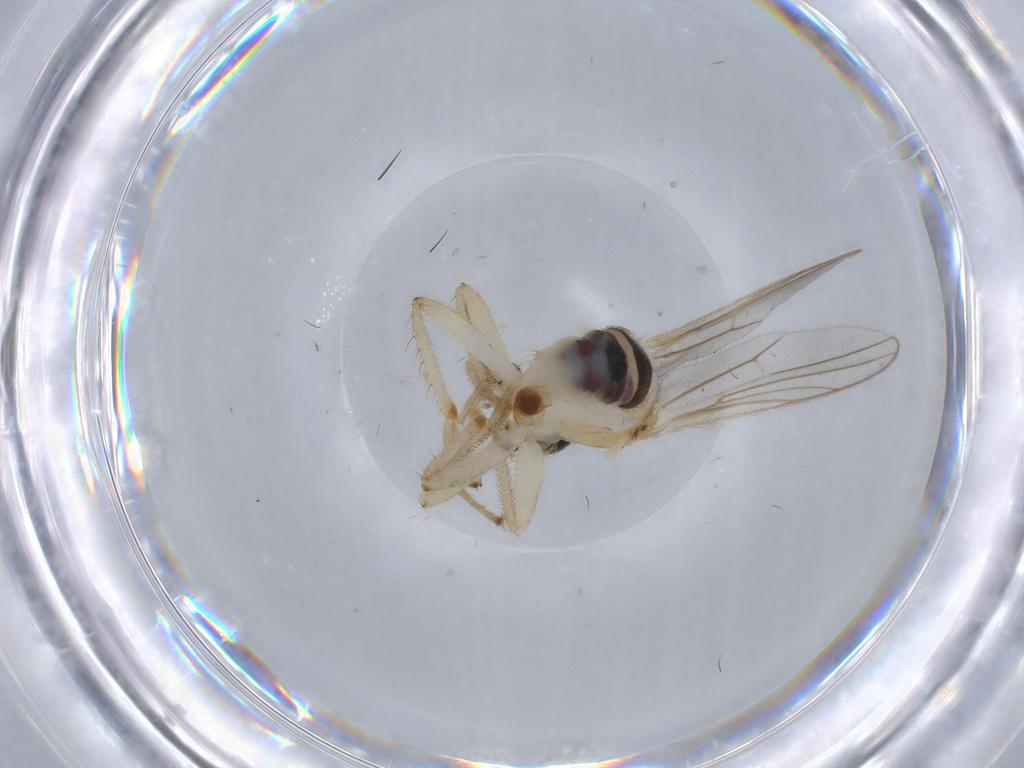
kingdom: Animalia
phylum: Arthropoda
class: Insecta
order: Diptera
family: Hybotidae
